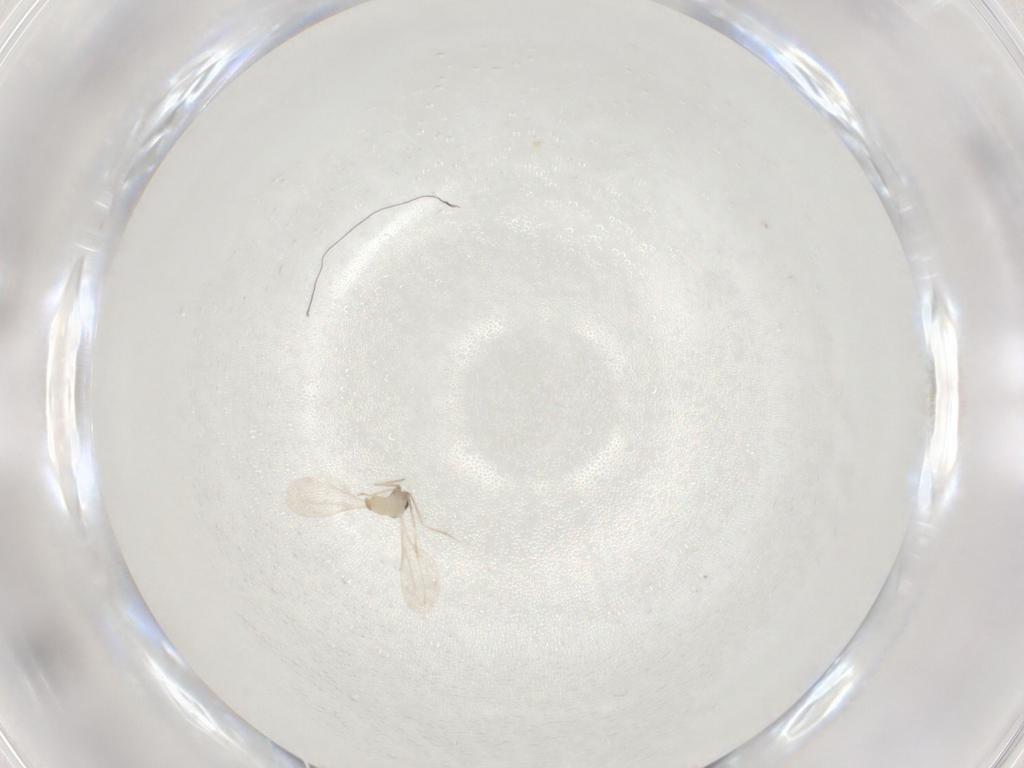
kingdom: Animalia
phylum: Arthropoda
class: Insecta
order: Diptera
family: Cecidomyiidae
